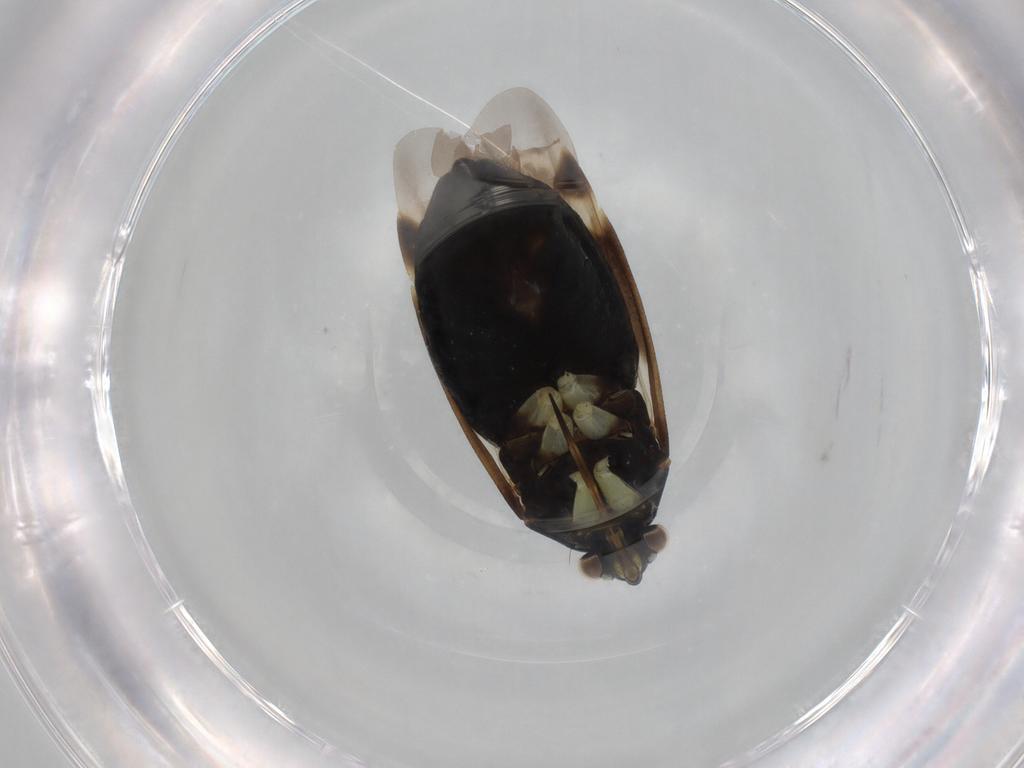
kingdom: Animalia
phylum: Arthropoda
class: Insecta
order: Hemiptera
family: Miridae
